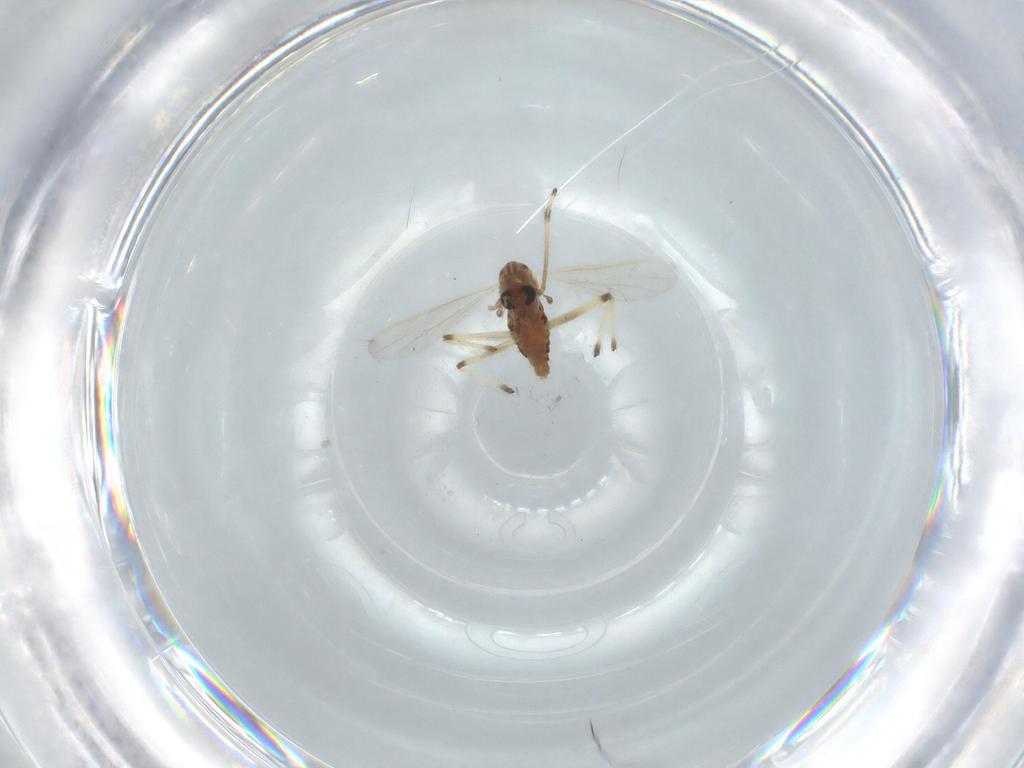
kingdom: Animalia
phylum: Arthropoda
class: Insecta
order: Diptera
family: Chironomidae
